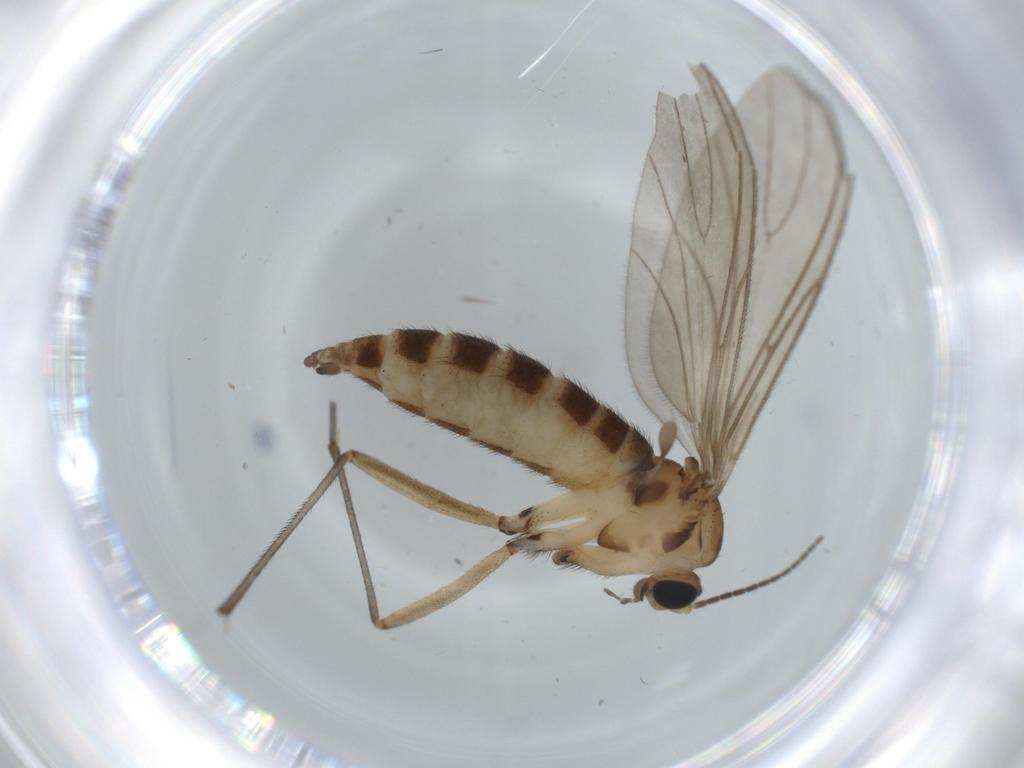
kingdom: Animalia
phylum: Arthropoda
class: Insecta
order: Diptera
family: Sciaridae
